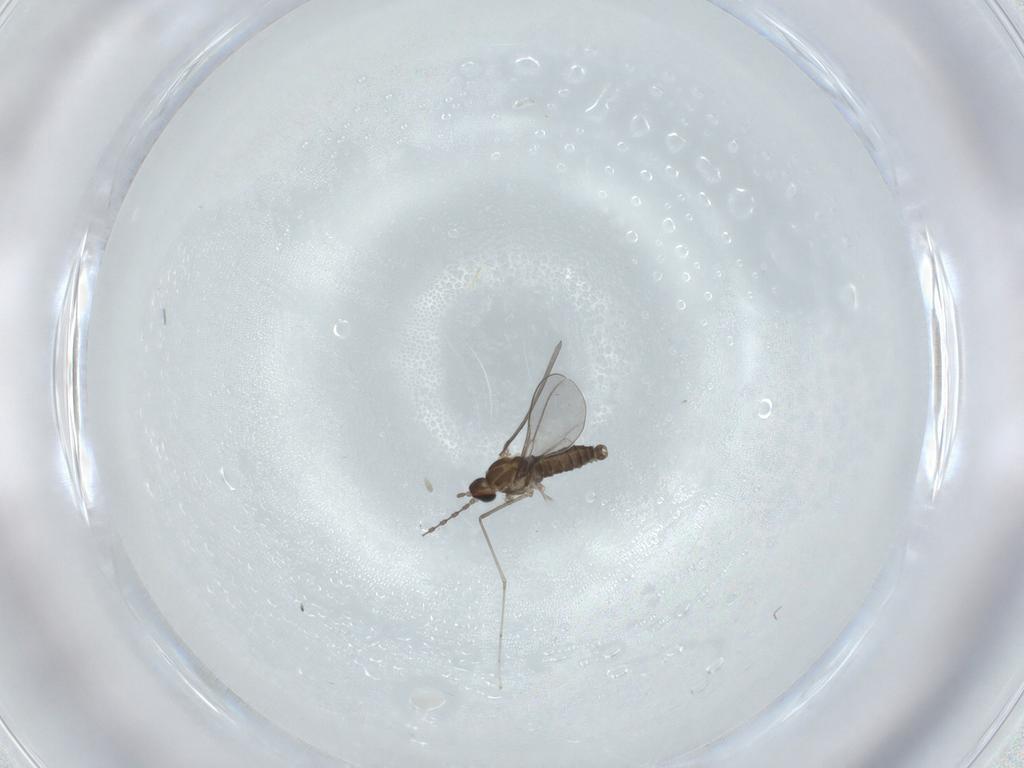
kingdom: Animalia
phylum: Arthropoda
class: Insecta
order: Diptera
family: Cecidomyiidae
